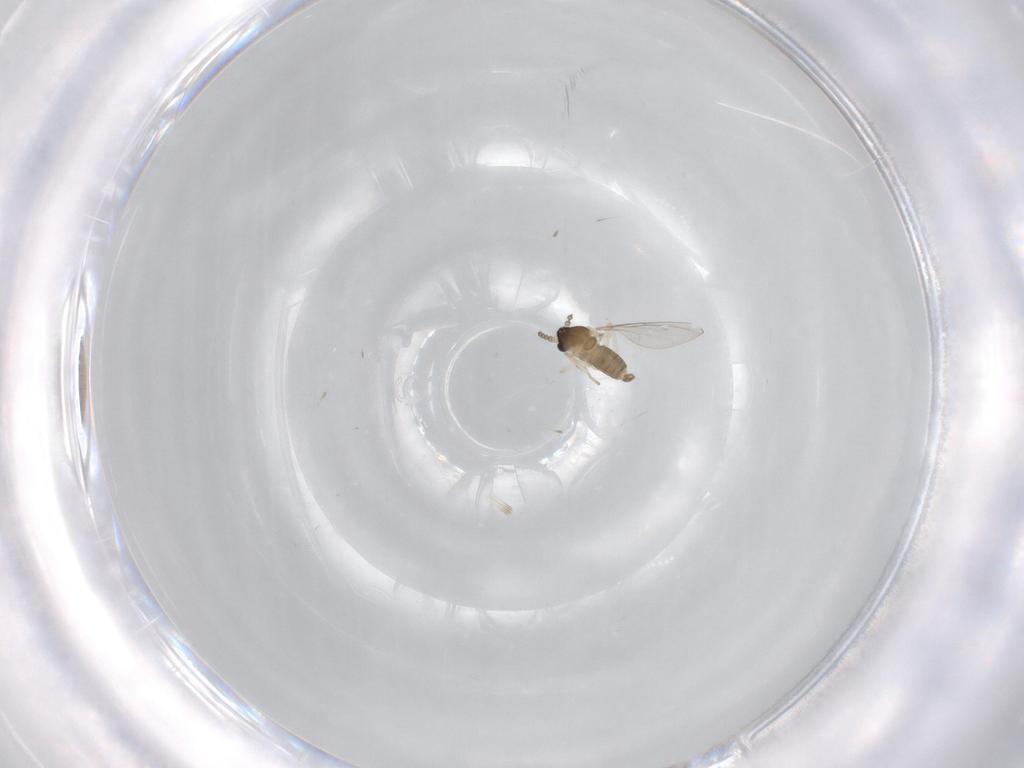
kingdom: Animalia
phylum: Arthropoda
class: Insecta
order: Diptera
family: Cecidomyiidae
